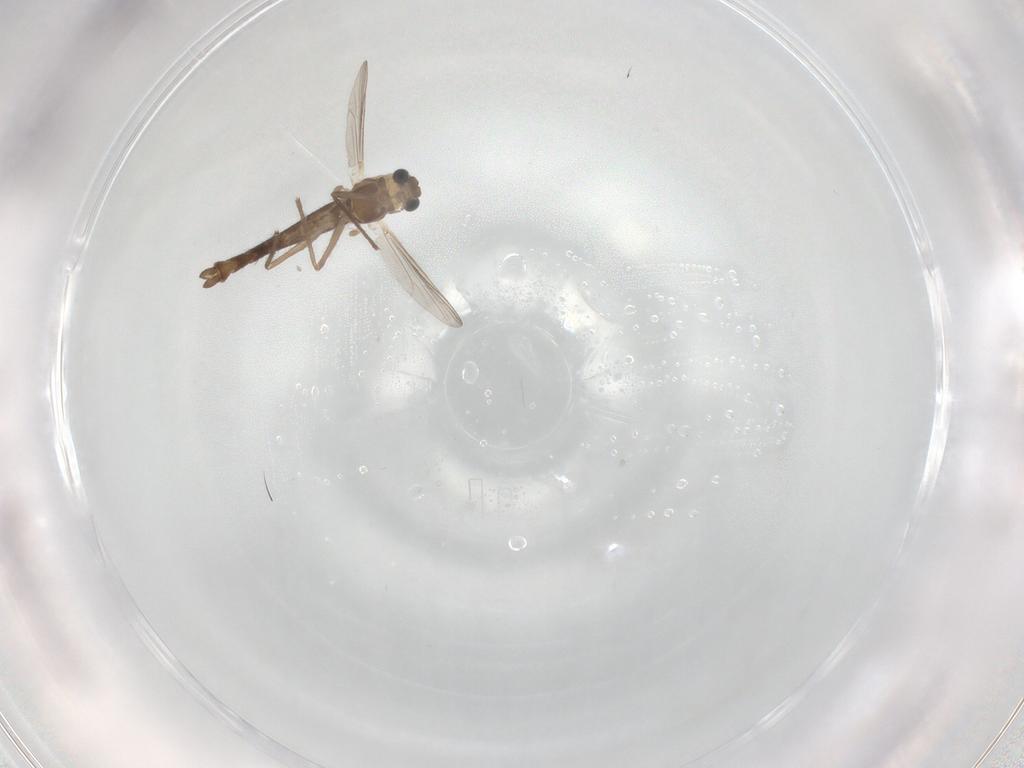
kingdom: Animalia
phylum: Arthropoda
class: Insecta
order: Diptera
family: Chironomidae
